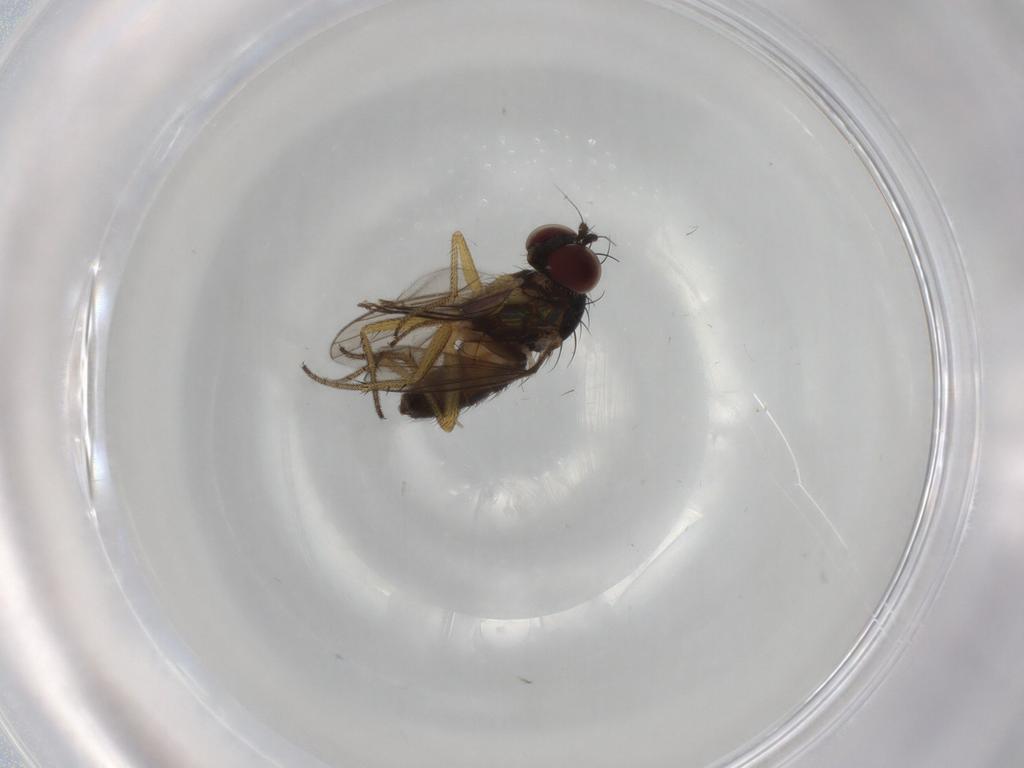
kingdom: Animalia
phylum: Arthropoda
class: Insecta
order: Diptera
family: Dolichopodidae
